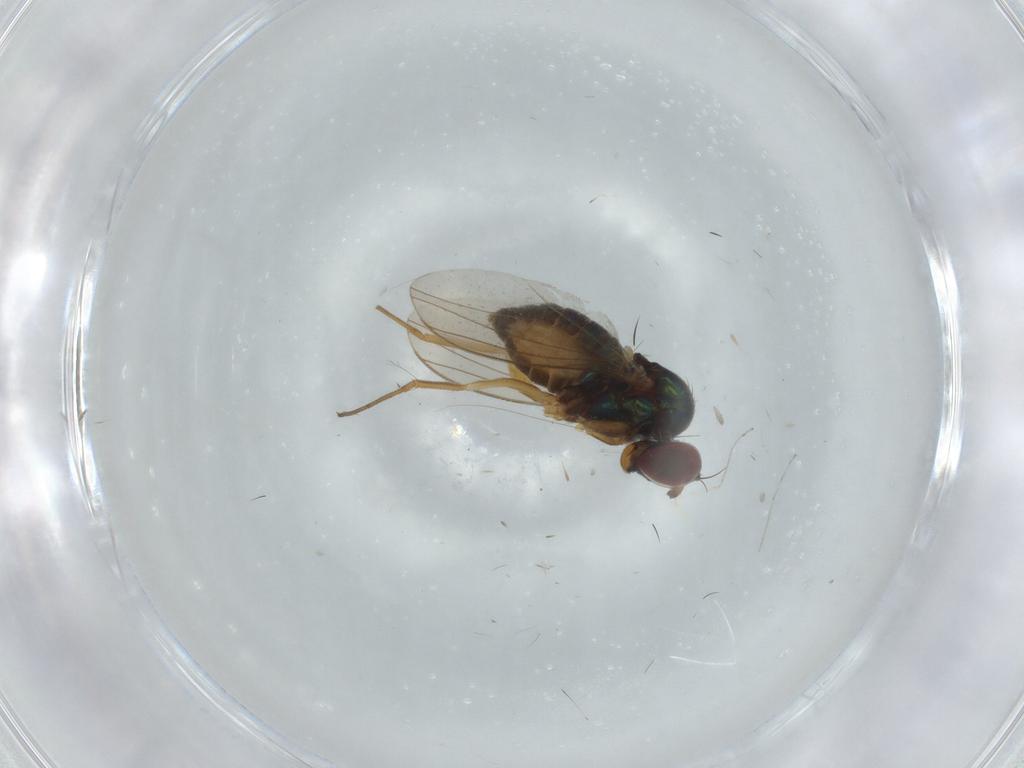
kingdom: Animalia
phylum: Arthropoda
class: Insecta
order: Diptera
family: Dolichopodidae
